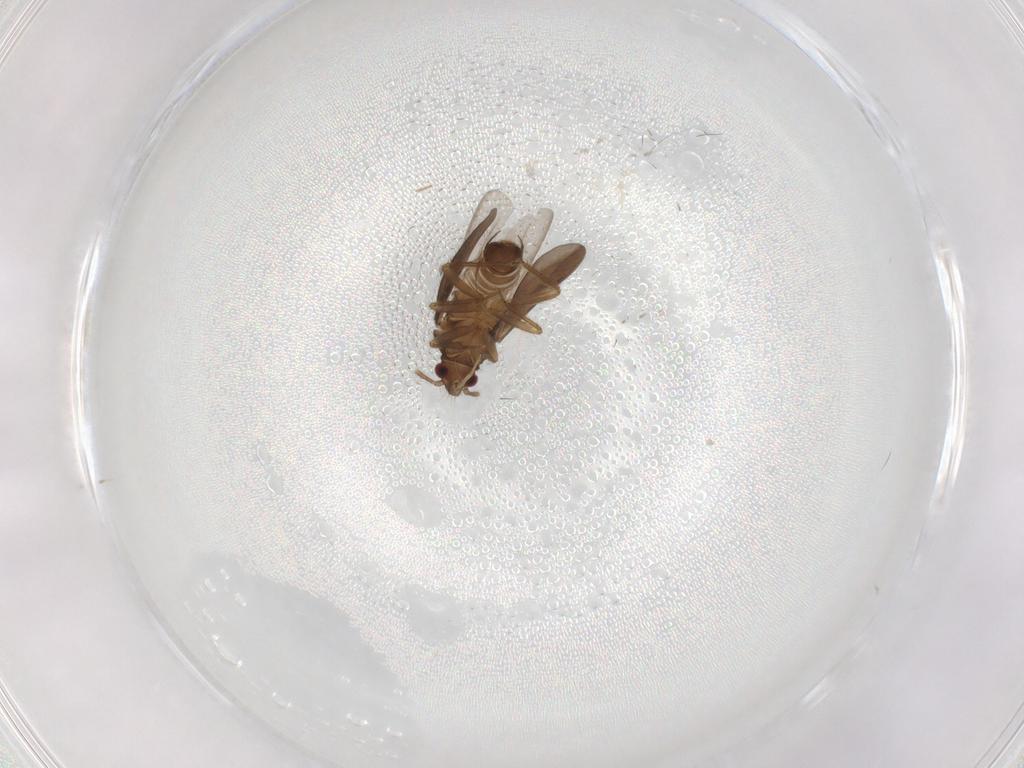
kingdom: Animalia
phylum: Arthropoda
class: Insecta
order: Hemiptera
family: Ceratocombidae
